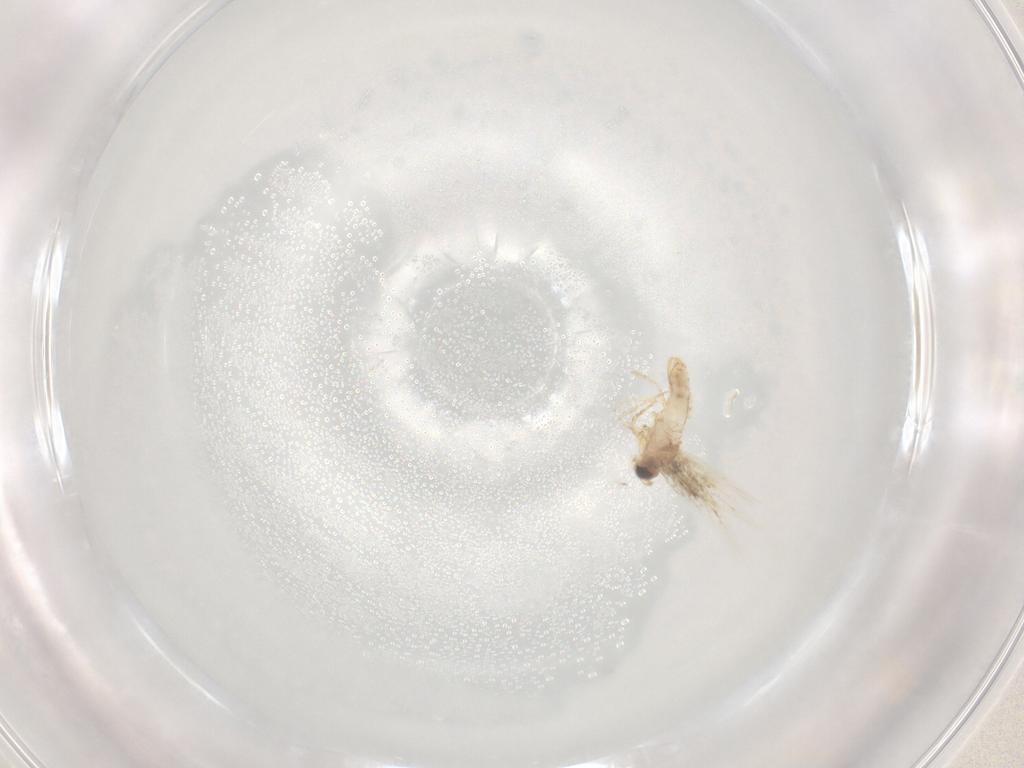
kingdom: Animalia
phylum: Arthropoda
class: Insecta
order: Lepidoptera
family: Nepticulidae
